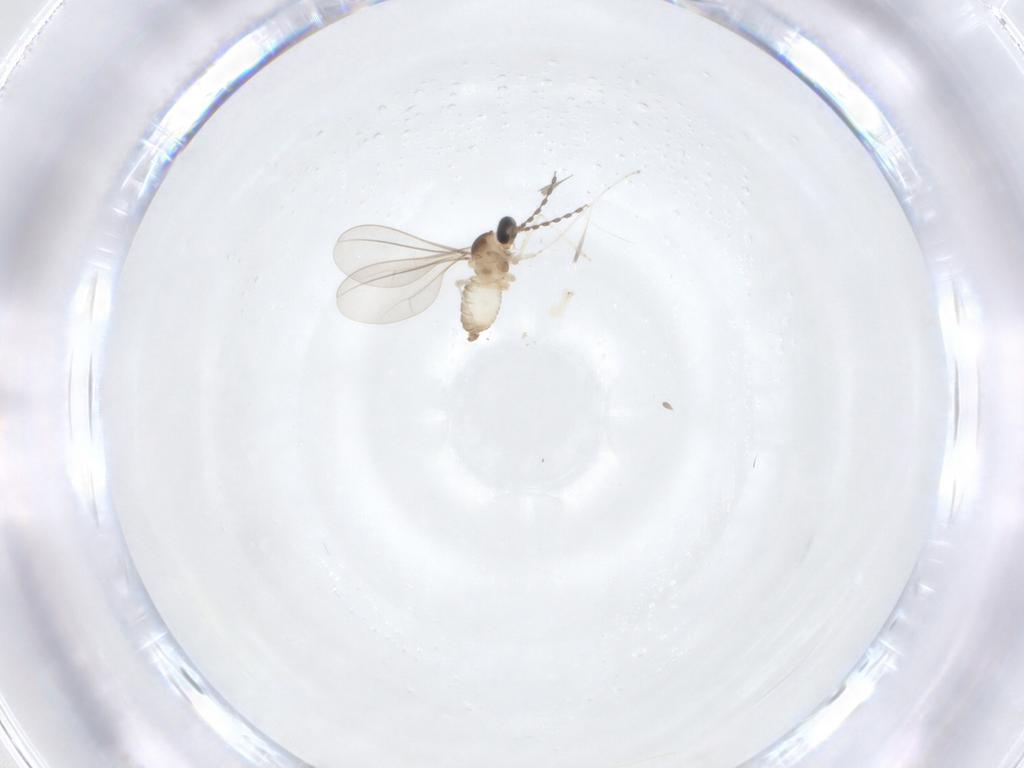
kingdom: Animalia
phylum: Arthropoda
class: Insecta
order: Diptera
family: Cecidomyiidae
